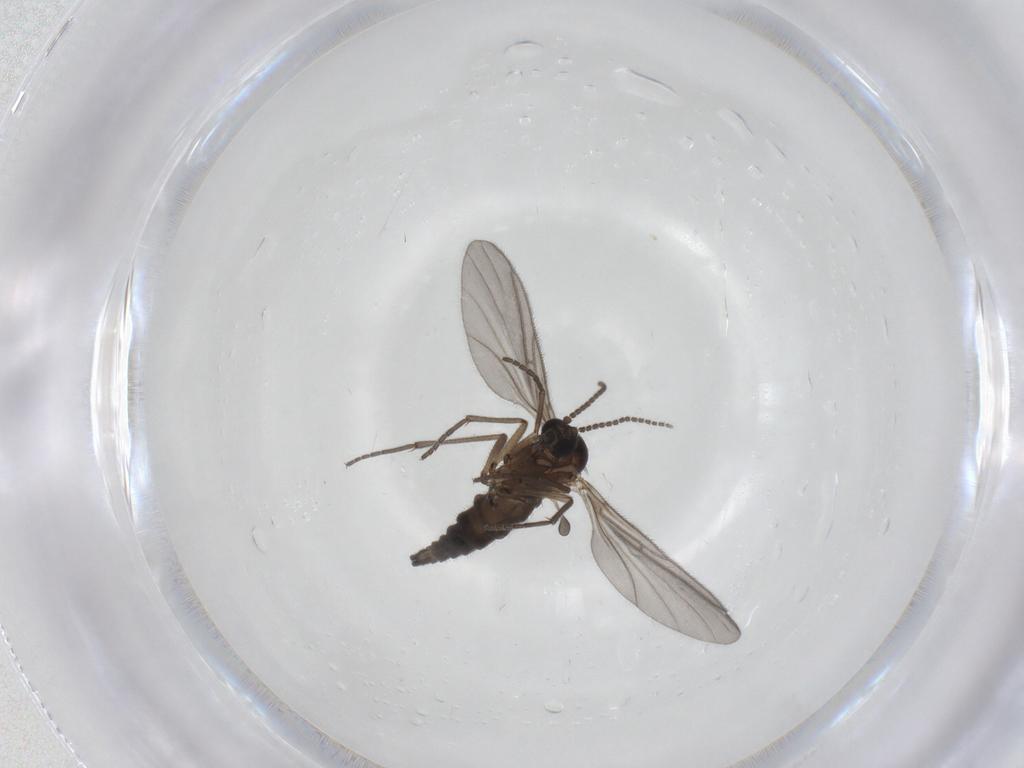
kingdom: Animalia
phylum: Arthropoda
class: Insecta
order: Diptera
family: Sciaridae
